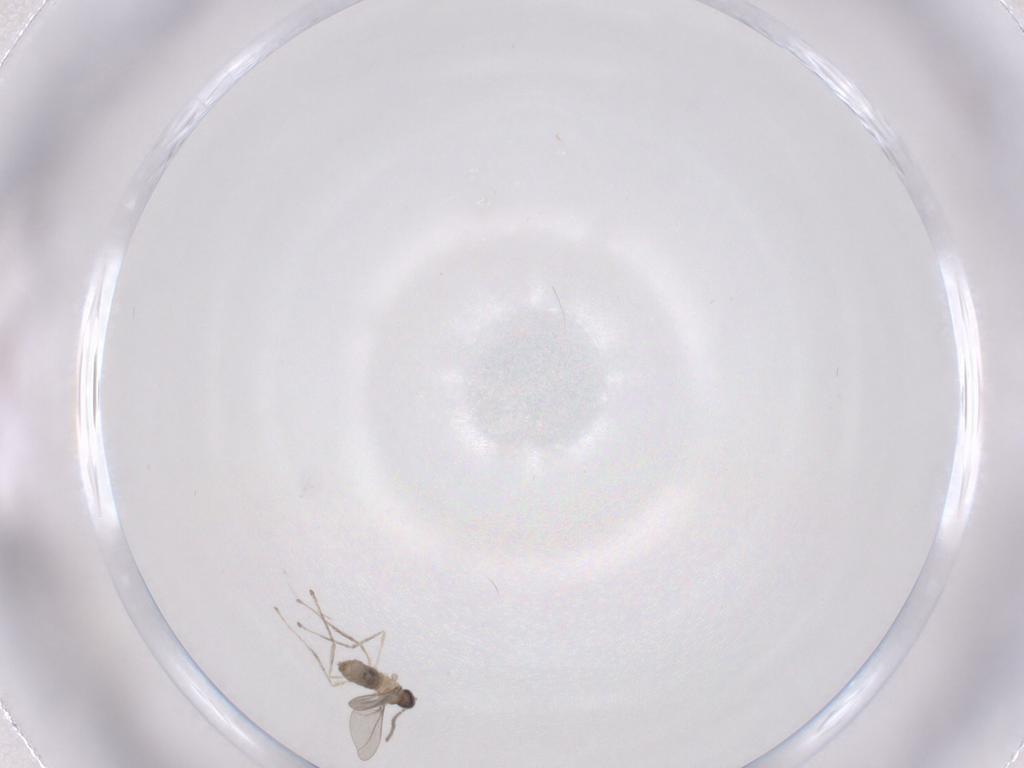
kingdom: Animalia
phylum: Arthropoda
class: Insecta
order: Diptera
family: Cecidomyiidae
